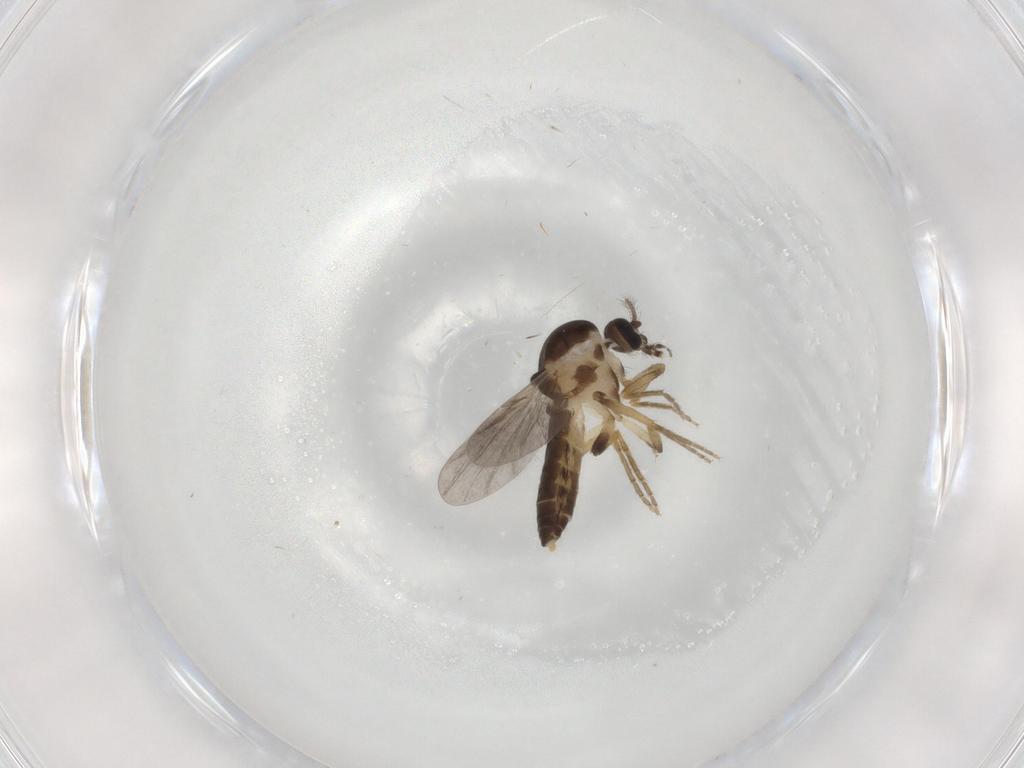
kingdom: Animalia
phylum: Arthropoda
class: Insecta
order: Diptera
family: Ceratopogonidae
